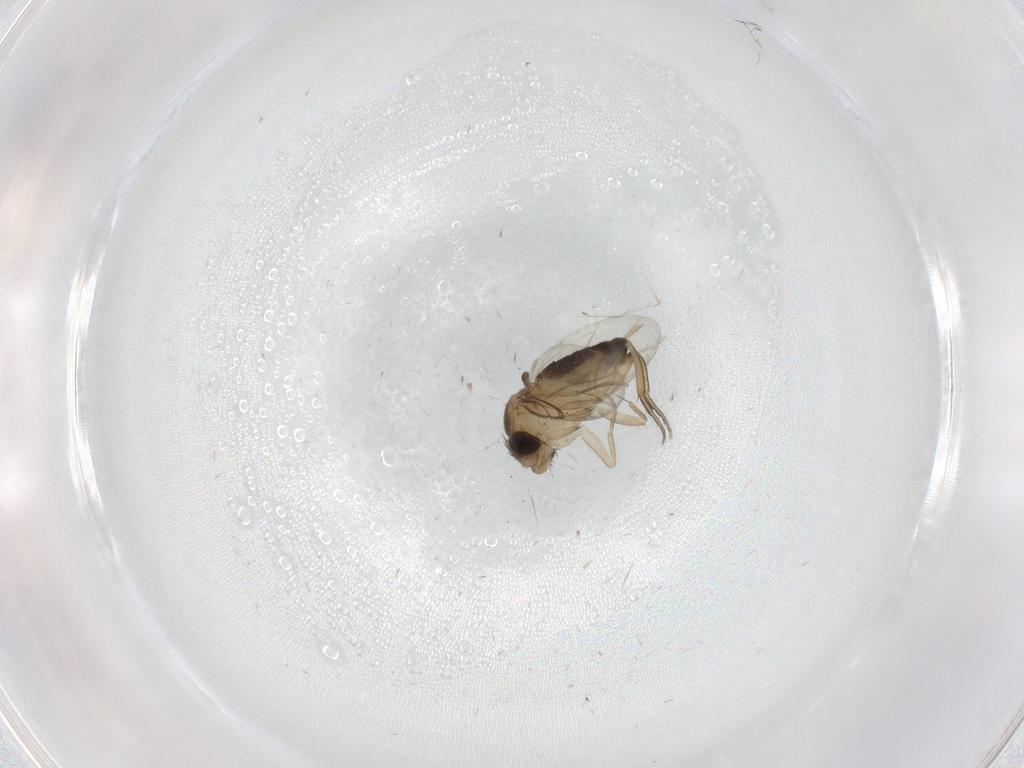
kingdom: Animalia
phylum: Arthropoda
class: Insecta
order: Diptera
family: Phoridae
